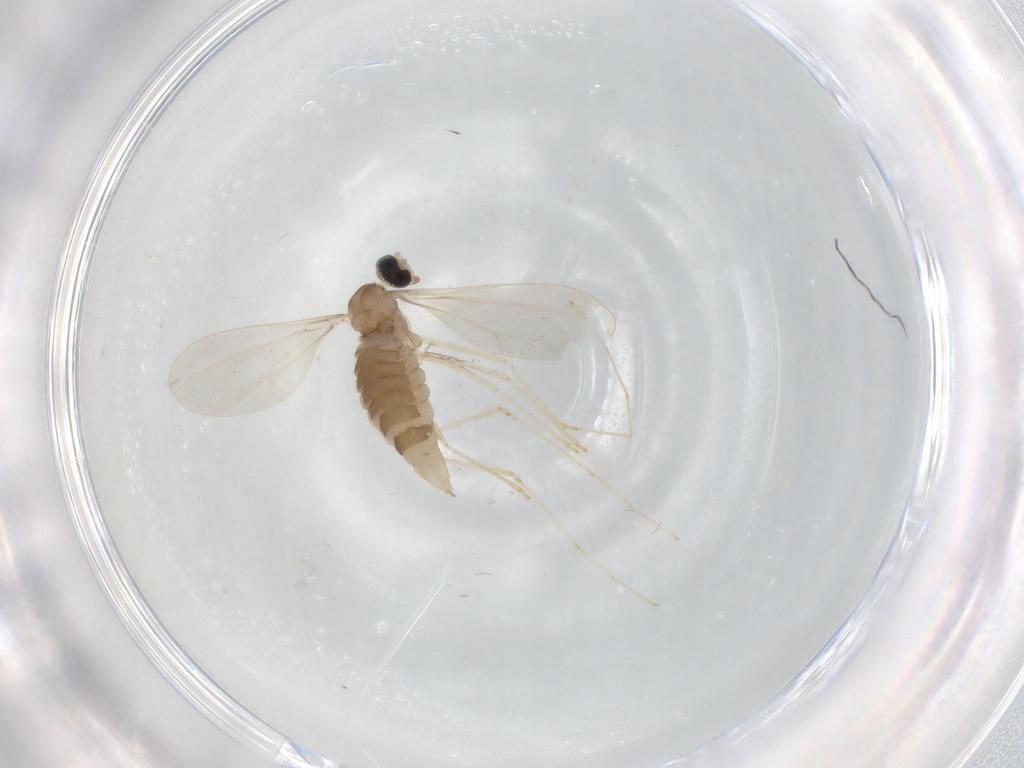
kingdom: Animalia
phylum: Arthropoda
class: Insecta
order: Diptera
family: Cecidomyiidae
